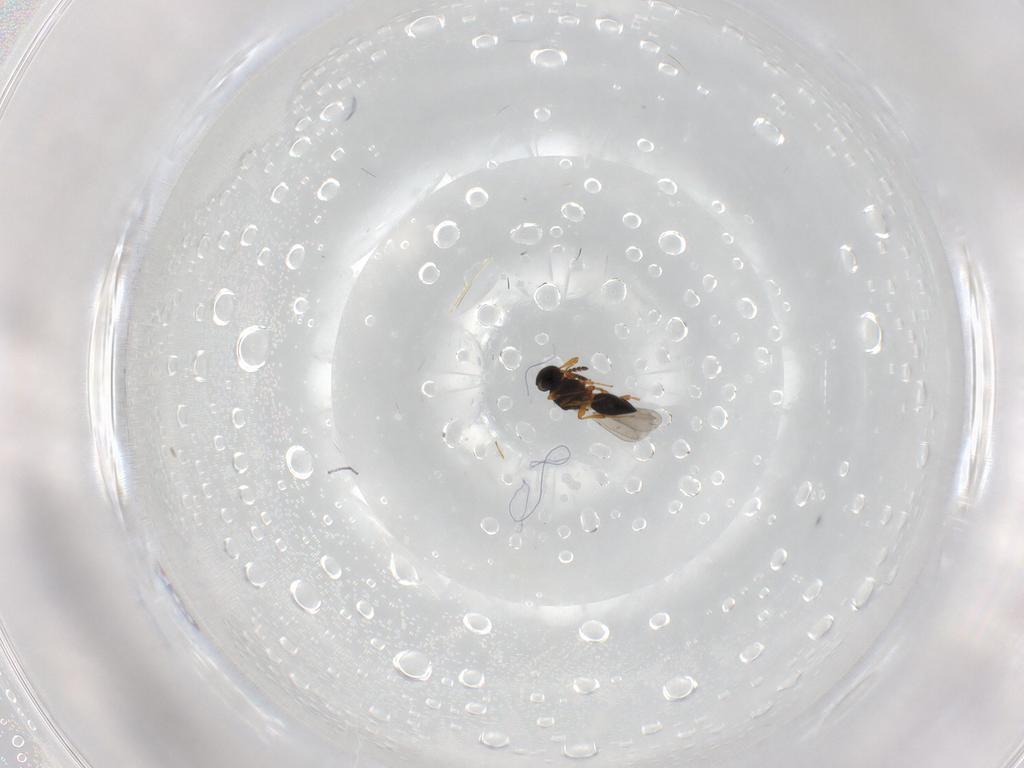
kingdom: Animalia
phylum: Arthropoda
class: Insecta
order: Hymenoptera
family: Platygastridae
